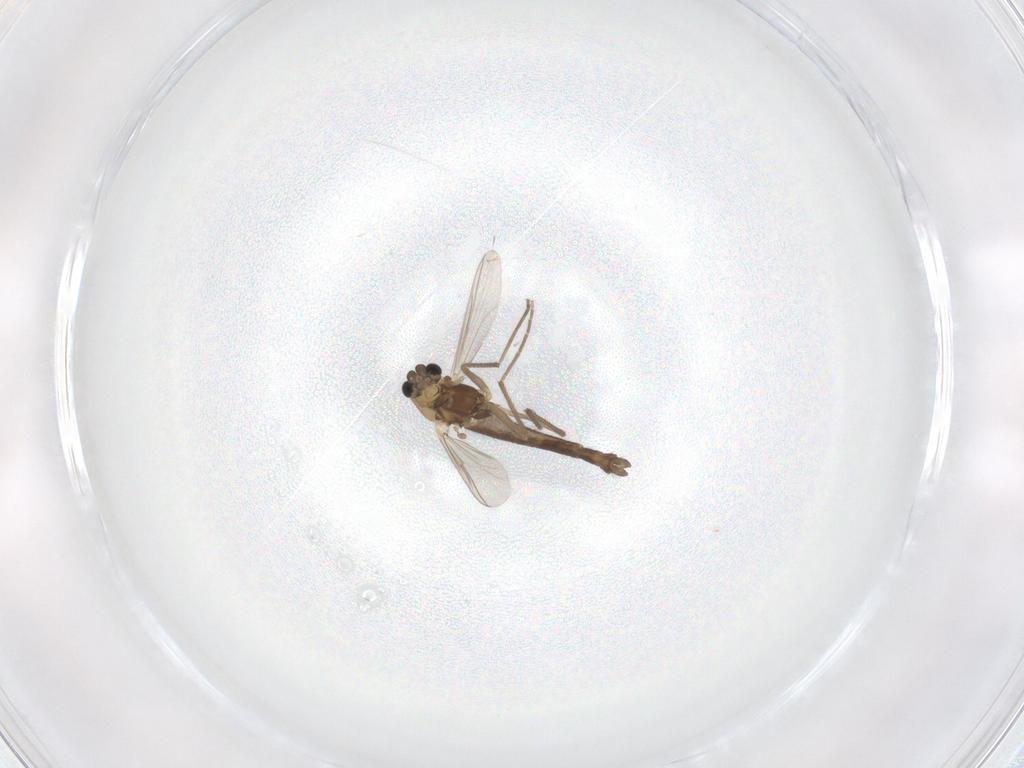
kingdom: Animalia
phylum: Arthropoda
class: Insecta
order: Diptera
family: Chironomidae
